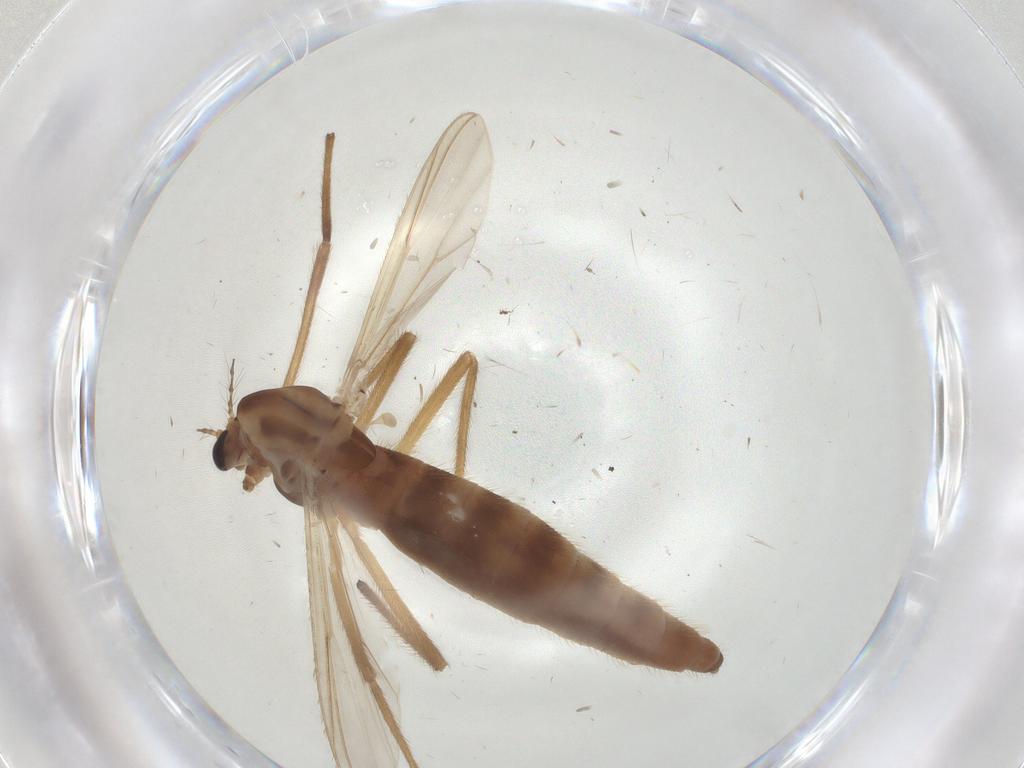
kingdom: Animalia
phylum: Arthropoda
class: Insecta
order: Diptera
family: Chironomidae
